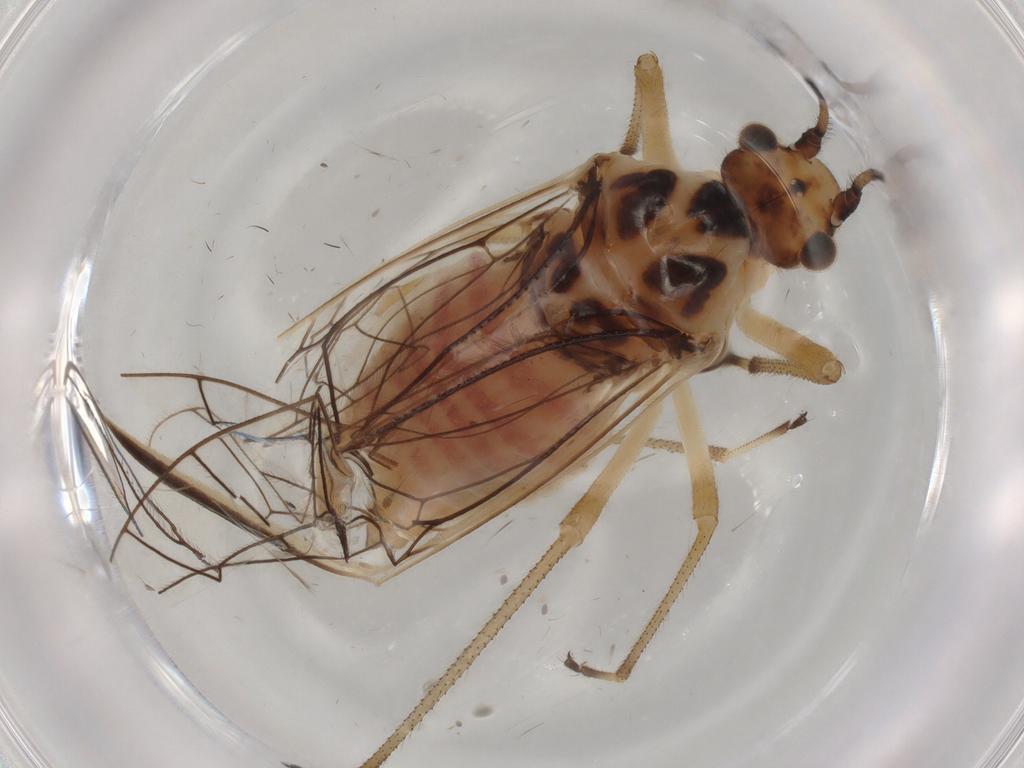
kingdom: Animalia
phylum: Arthropoda
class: Insecta
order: Psocodea
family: Amphipsocidae
